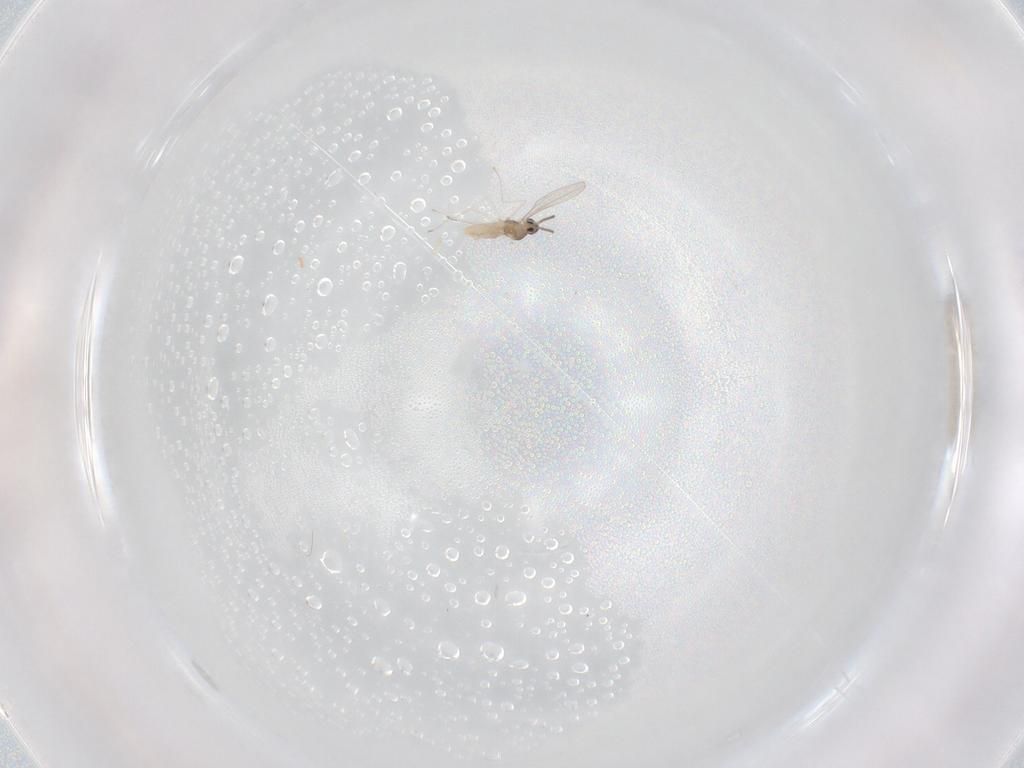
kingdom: Animalia
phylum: Arthropoda
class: Insecta
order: Diptera
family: Cecidomyiidae
